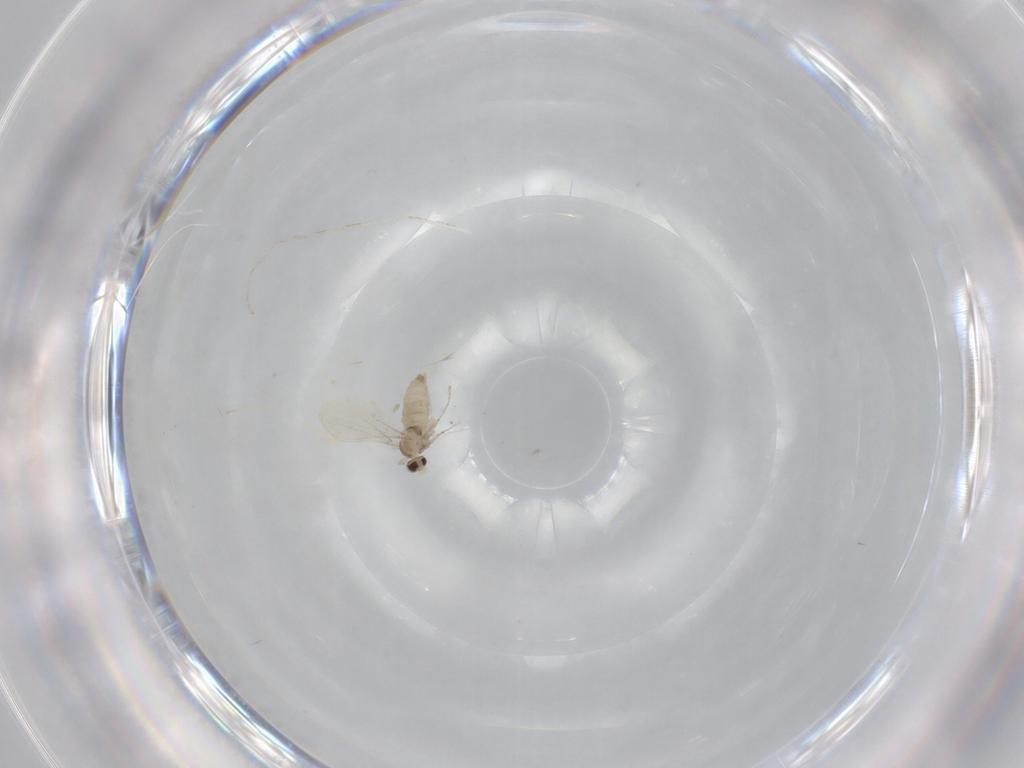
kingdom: Animalia
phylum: Arthropoda
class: Insecta
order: Diptera
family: Cecidomyiidae
